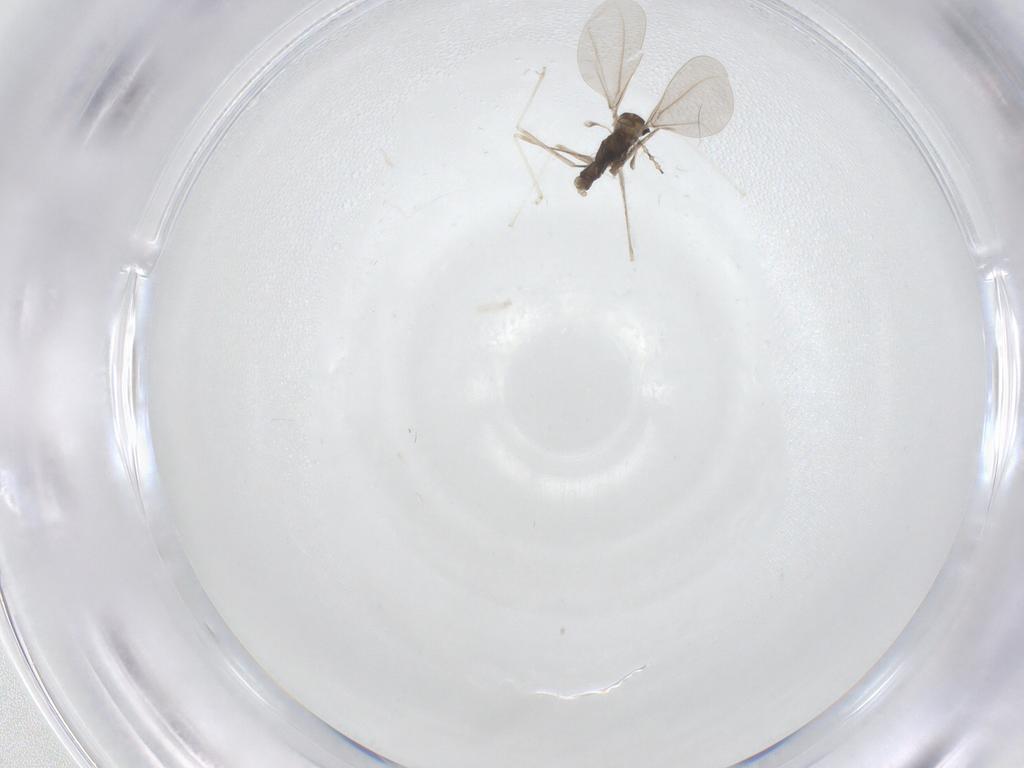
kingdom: Animalia
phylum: Arthropoda
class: Insecta
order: Diptera
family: Cecidomyiidae
